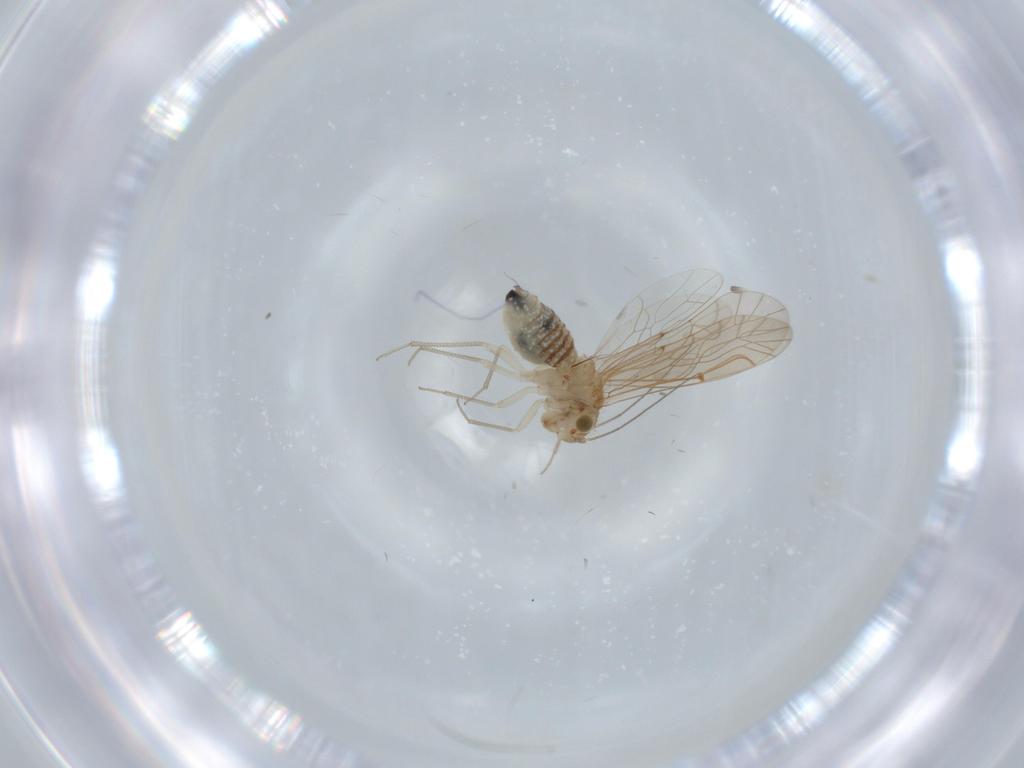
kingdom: Animalia
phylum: Arthropoda
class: Insecta
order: Psocodea
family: Lachesillidae
